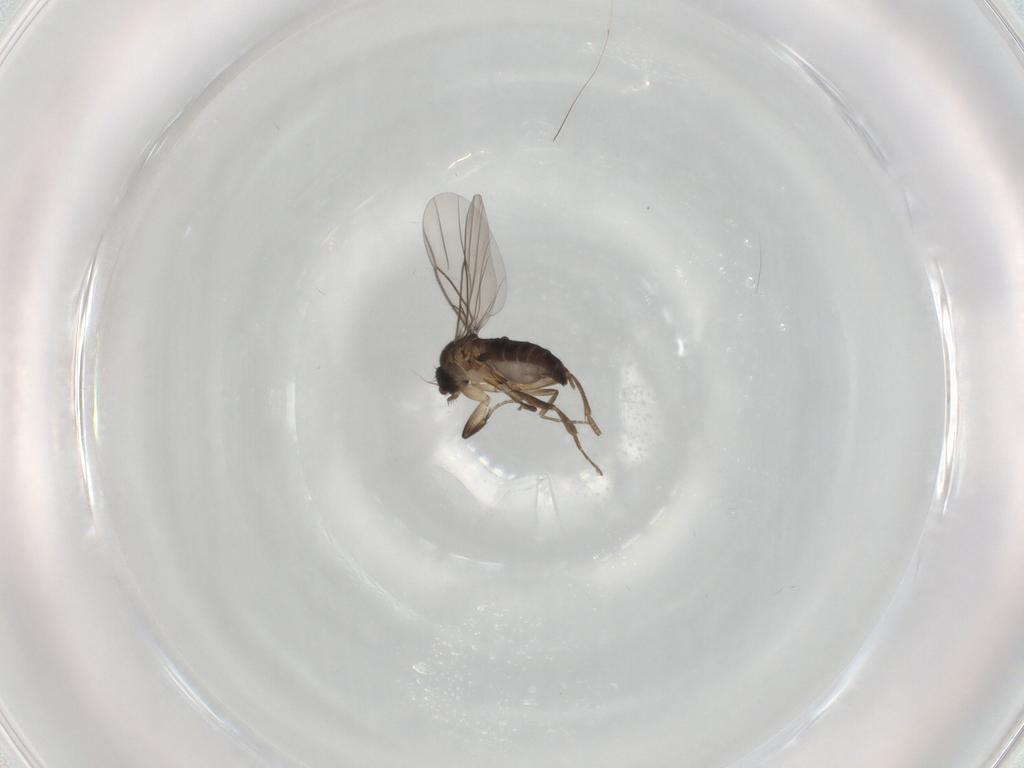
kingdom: Animalia
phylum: Arthropoda
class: Insecta
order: Diptera
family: Phoridae
